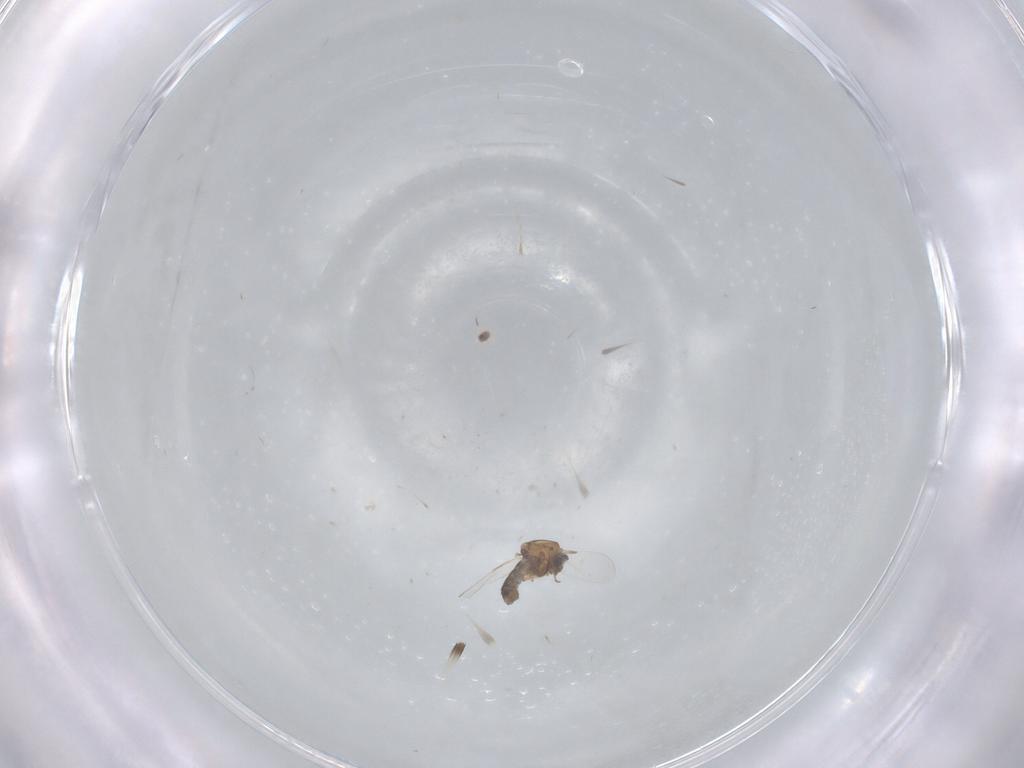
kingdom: Animalia
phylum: Arthropoda
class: Insecta
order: Diptera
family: Ceratopogonidae
